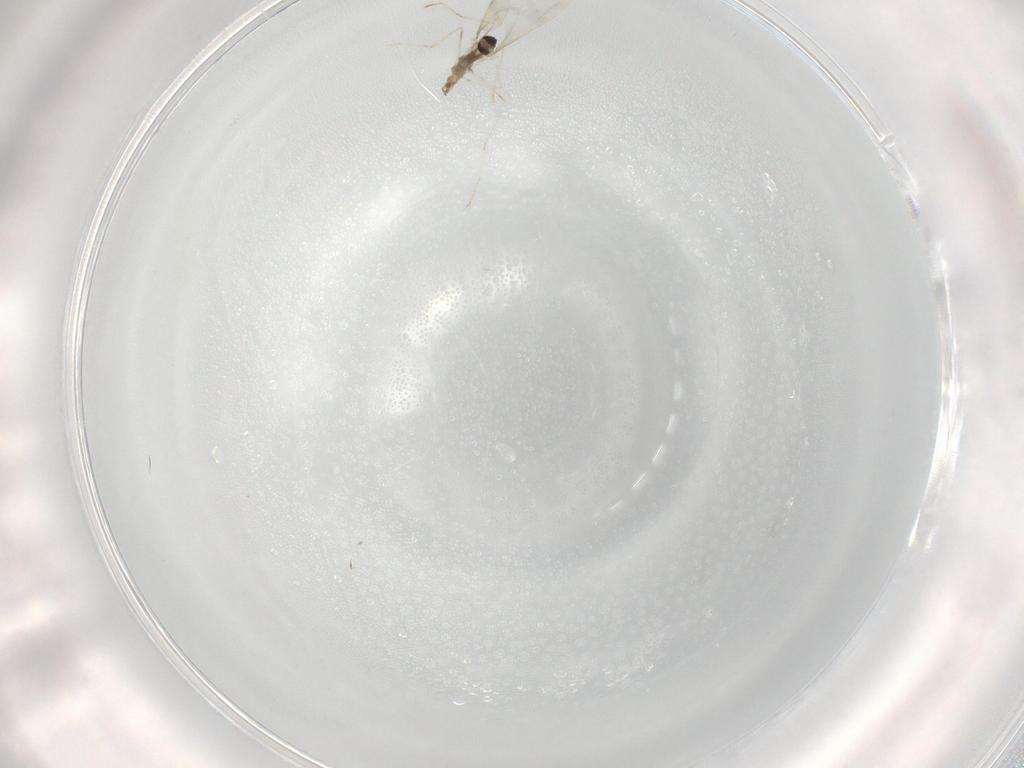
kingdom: Animalia
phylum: Arthropoda
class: Insecta
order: Diptera
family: Cecidomyiidae
